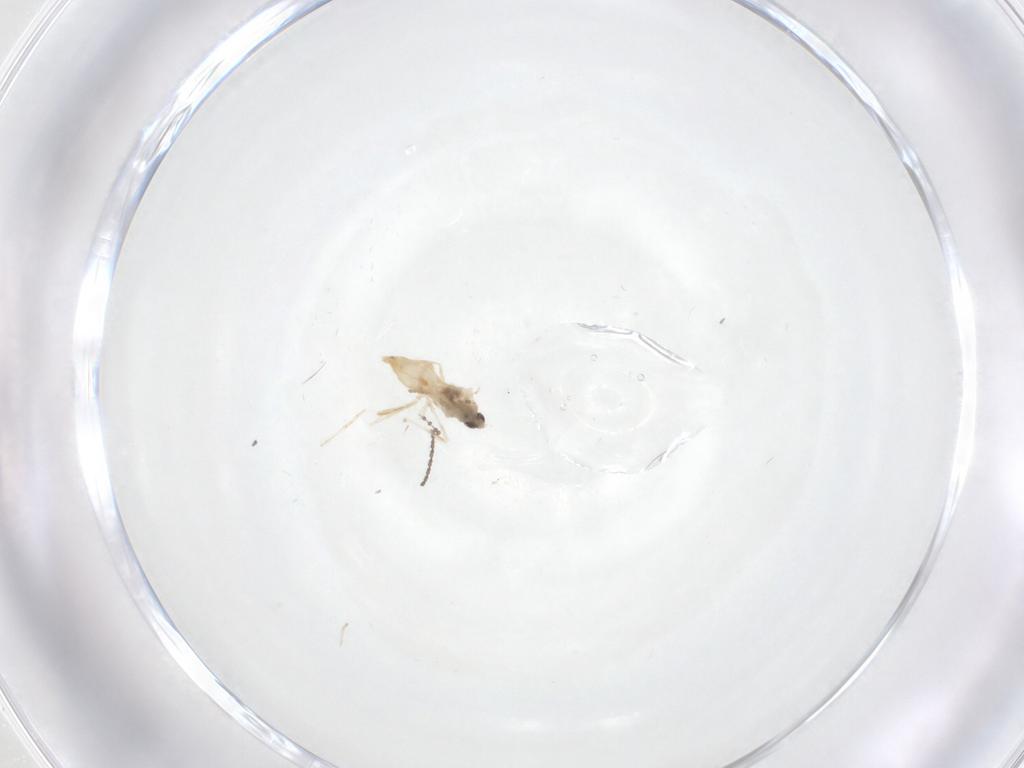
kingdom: Animalia
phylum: Arthropoda
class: Insecta
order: Diptera
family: Cecidomyiidae
